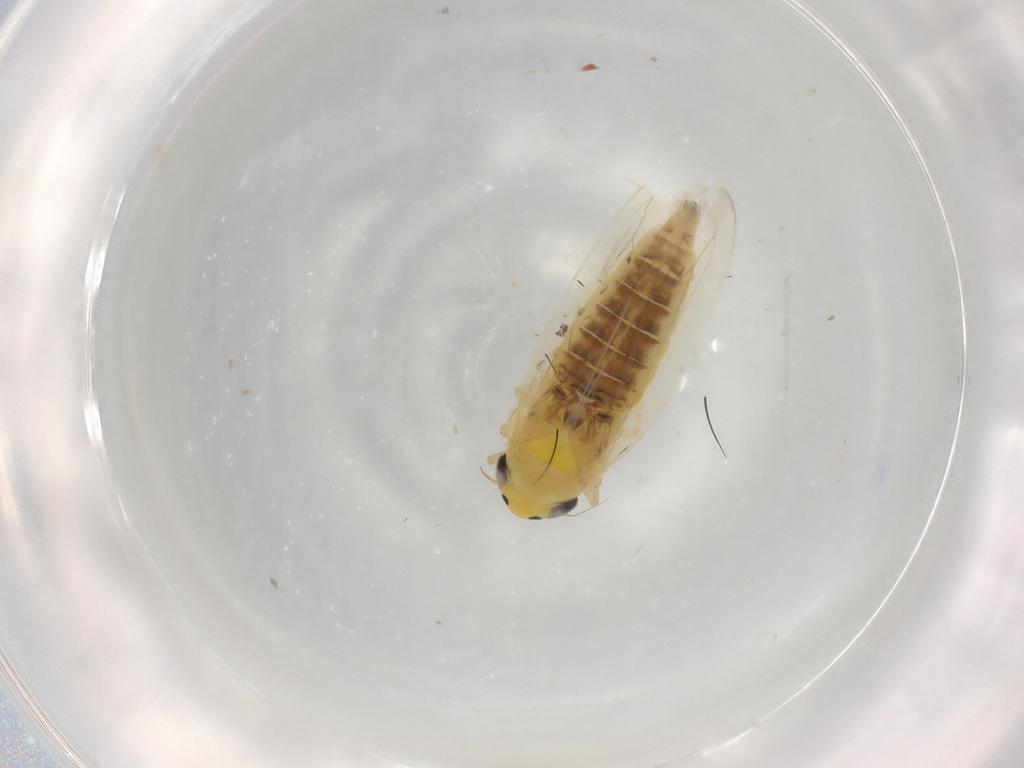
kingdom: Animalia
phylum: Arthropoda
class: Insecta
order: Hemiptera
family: Cicadellidae
